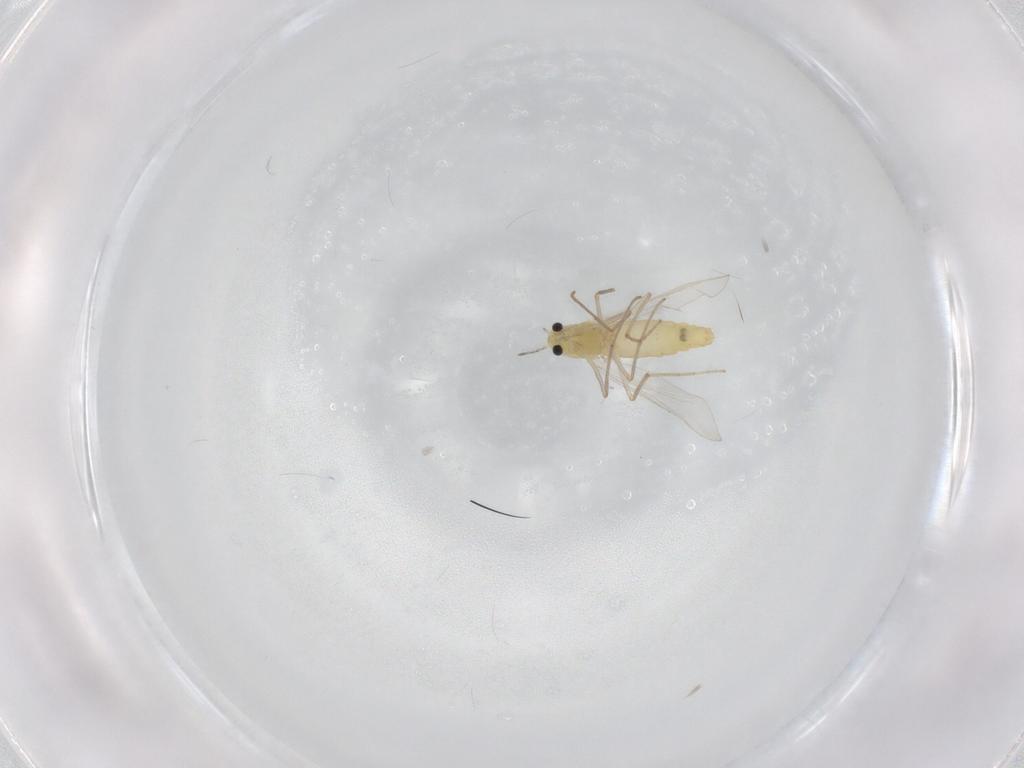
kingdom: Animalia
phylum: Arthropoda
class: Insecta
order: Diptera
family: Chironomidae
